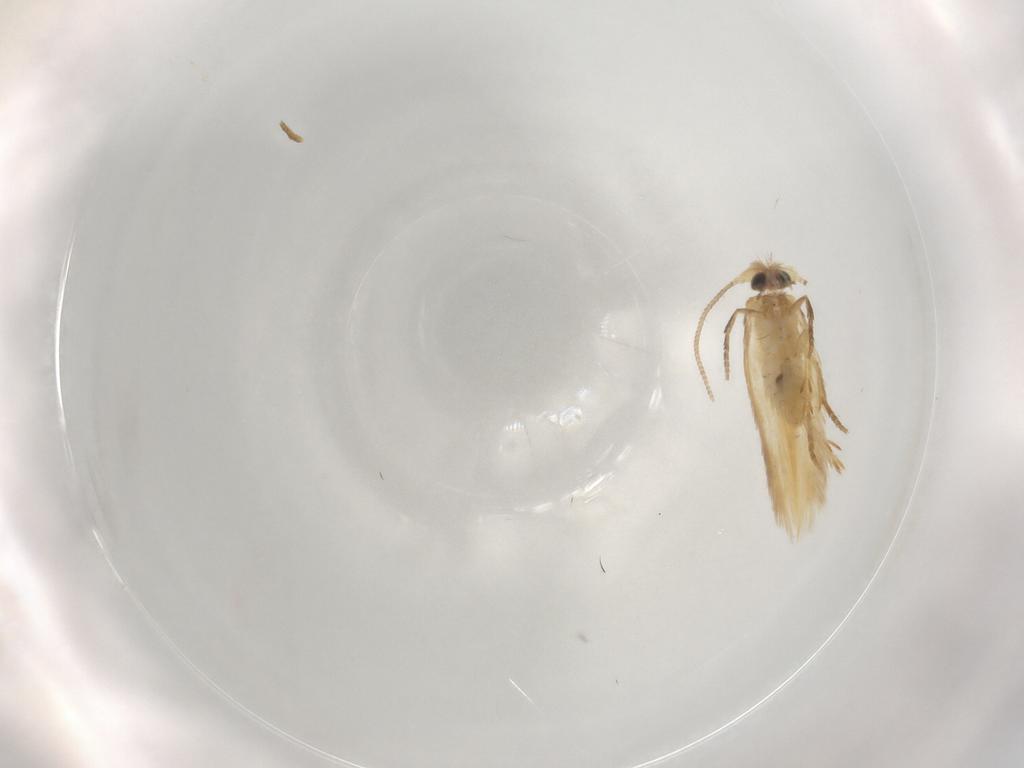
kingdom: Animalia
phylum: Arthropoda
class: Insecta
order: Lepidoptera
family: Nepticulidae
